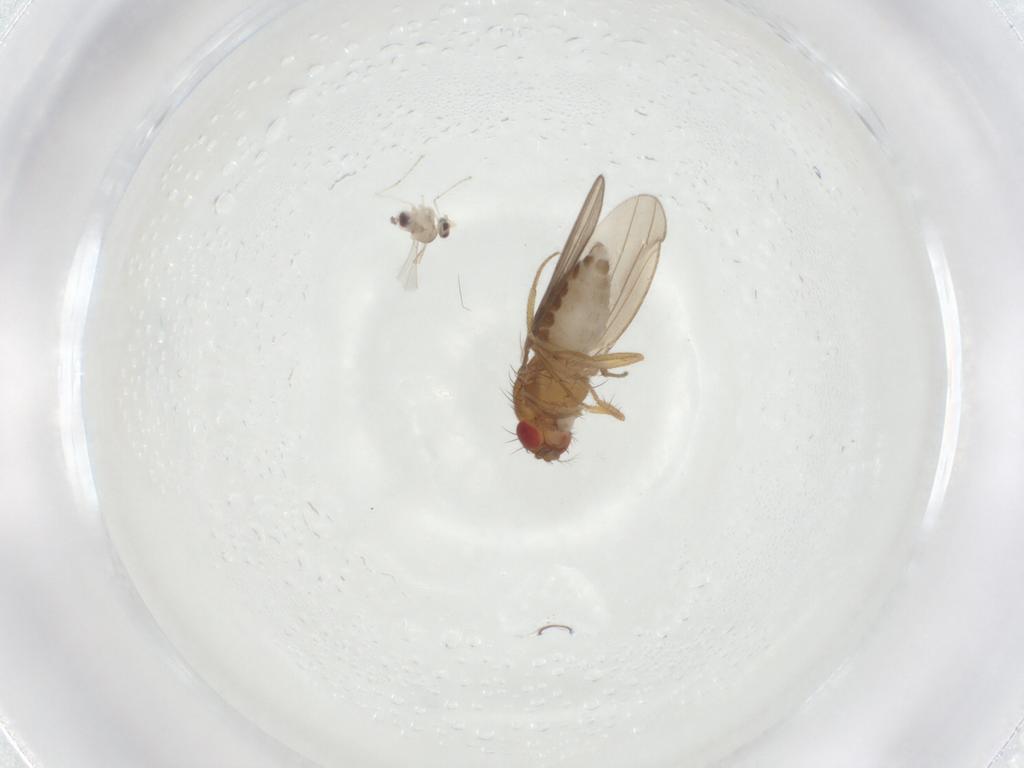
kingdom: Animalia
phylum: Arthropoda
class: Insecta
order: Diptera
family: Drosophilidae
